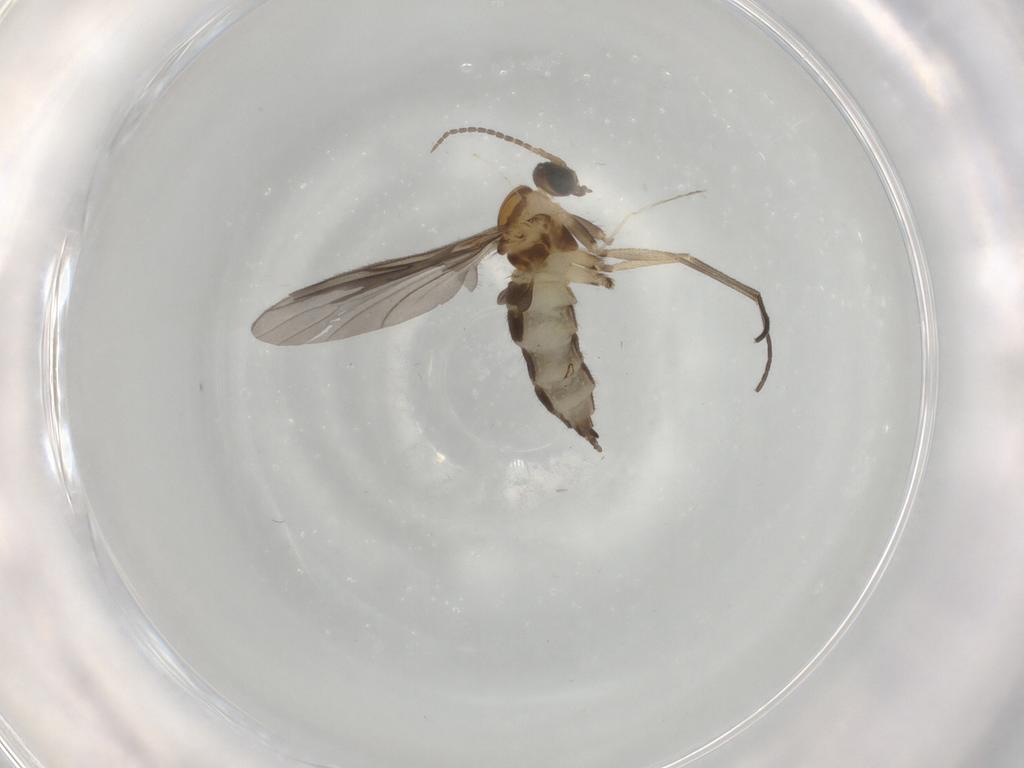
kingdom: Animalia
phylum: Arthropoda
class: Insecta
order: Diptera
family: Sciaridae
